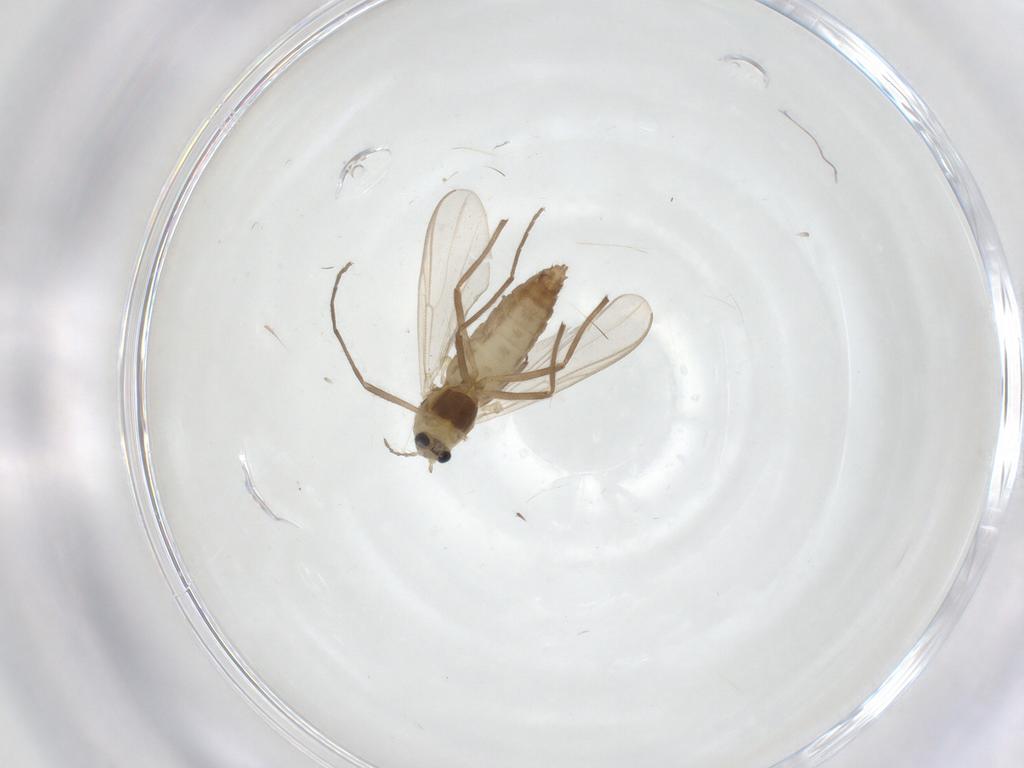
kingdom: Animalia
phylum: Arthropoda
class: Insecta
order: Diptera
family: Chironomidae
